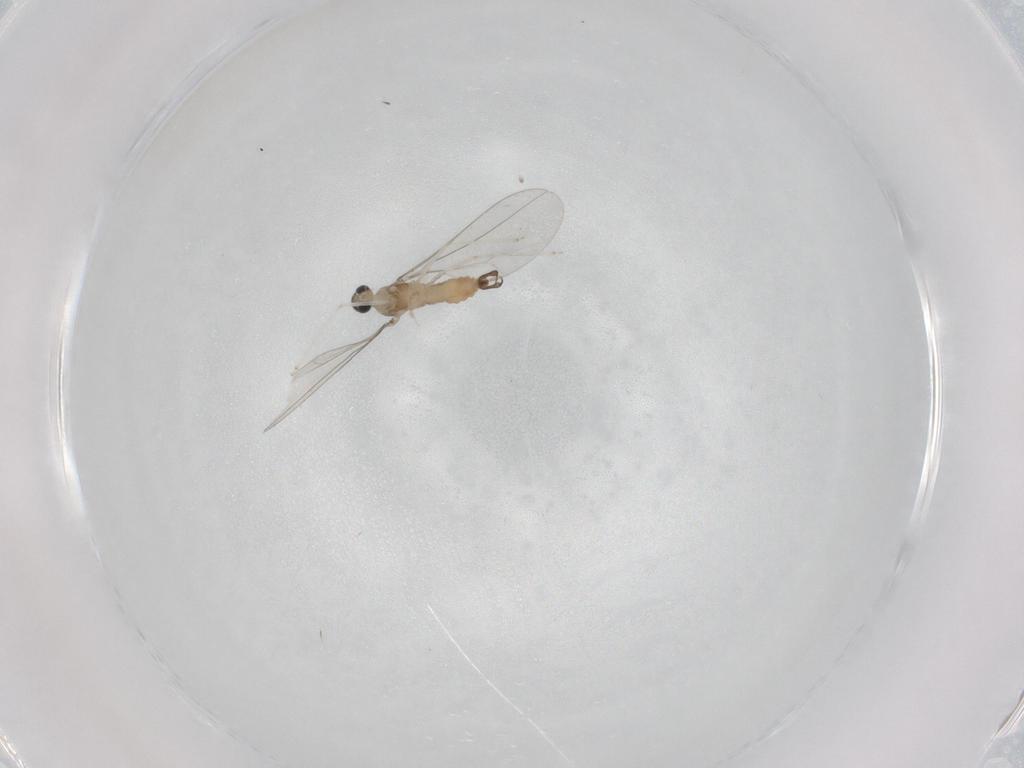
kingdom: Animalia
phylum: Arthropoda
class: Insecta
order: Diptera
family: Cecidomyiidae
